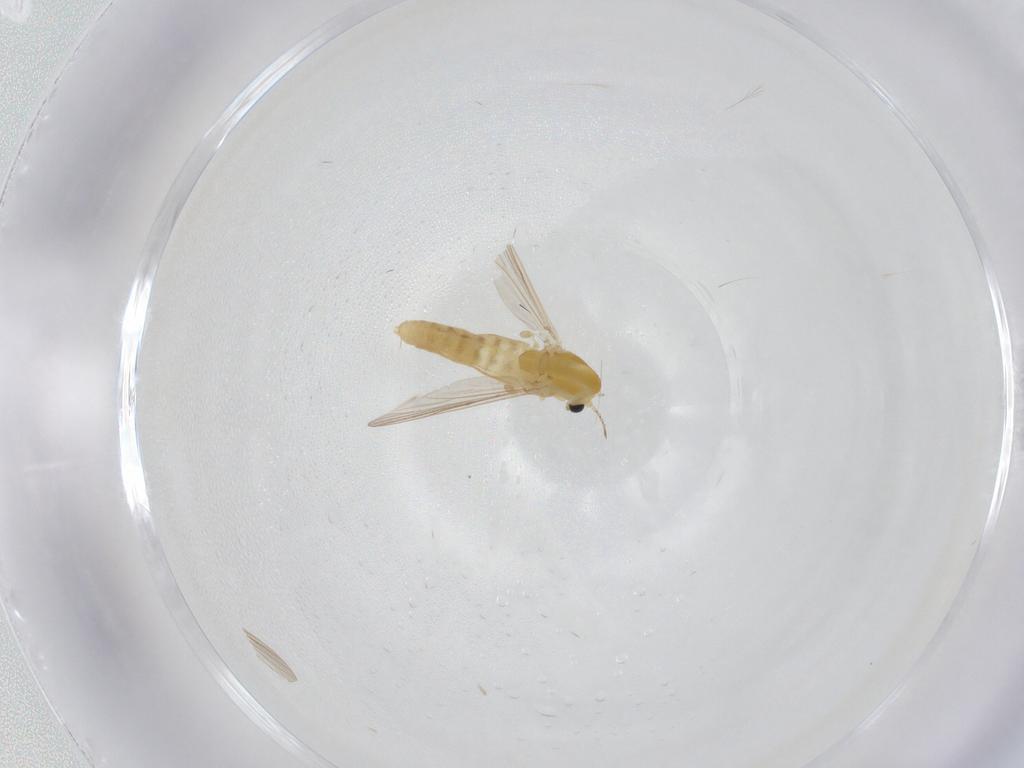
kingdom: Animalia
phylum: Arthropoda
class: Insecta
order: Diptera
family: Chironomidae
